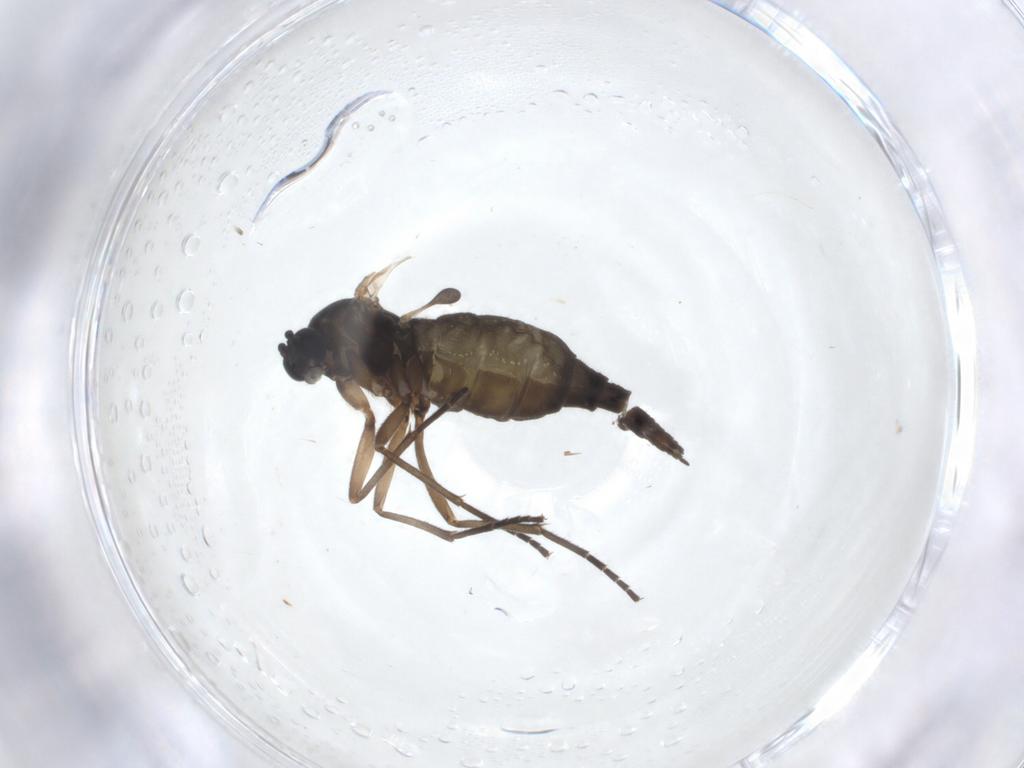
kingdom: Animalia
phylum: Arthropoda
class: Insecta
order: Diptera
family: Sciaridae
